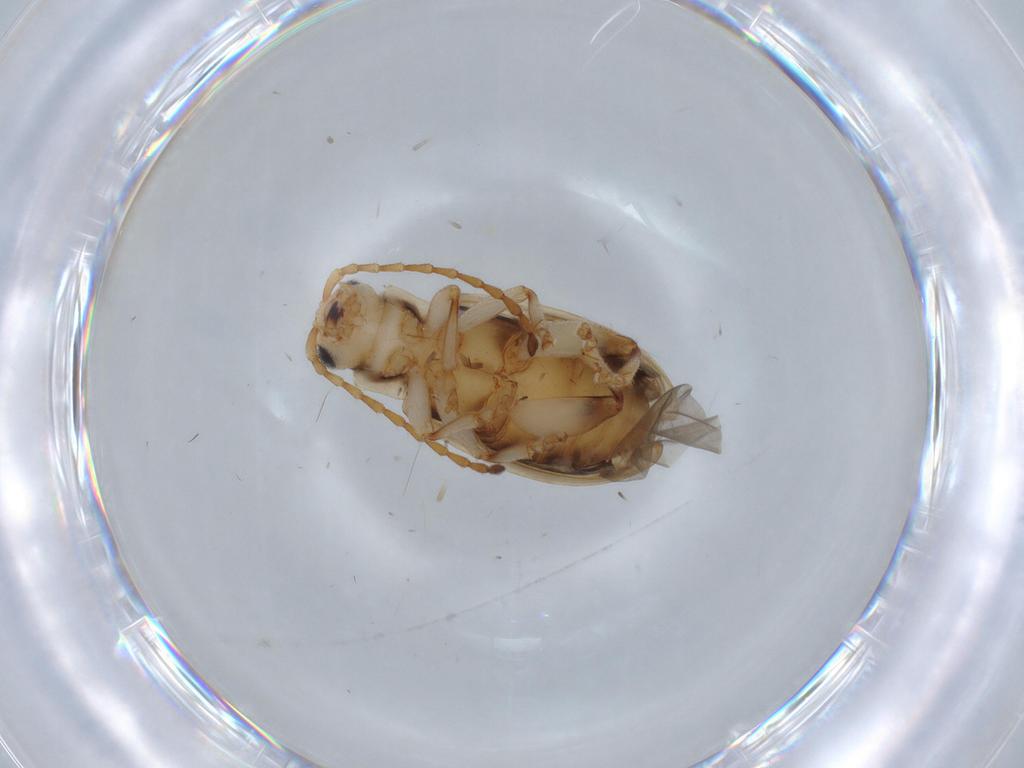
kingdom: Animalia
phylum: Arthropoda
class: Insecta
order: Coleoptera
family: Chrysomelidae
